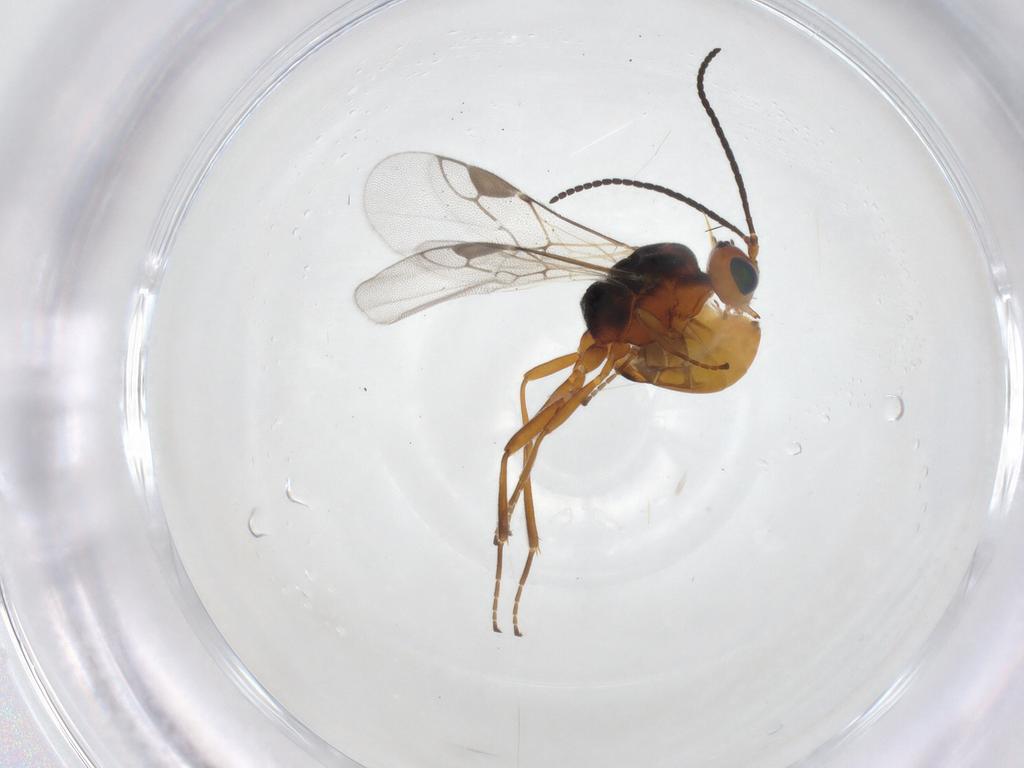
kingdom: Animalia
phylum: Arthropoda
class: Insecta
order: Hymenoptera
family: Braconidae
